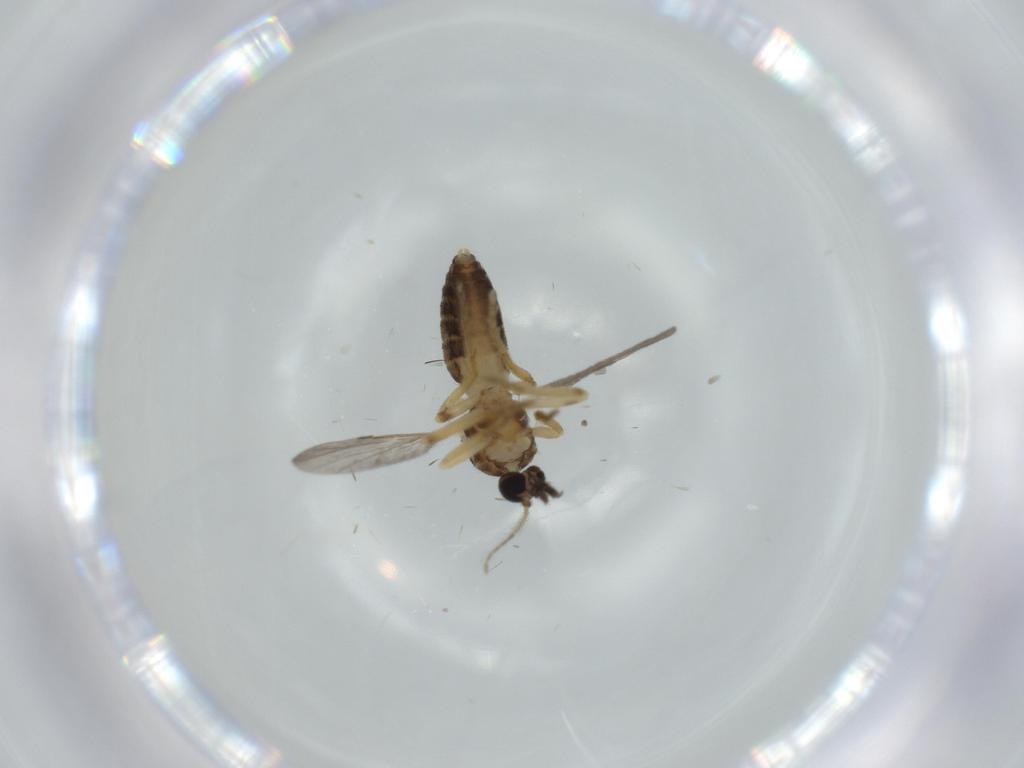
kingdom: Animalia
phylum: Arthropoda
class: Insecta
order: Diptera
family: Ceratopogonidae
